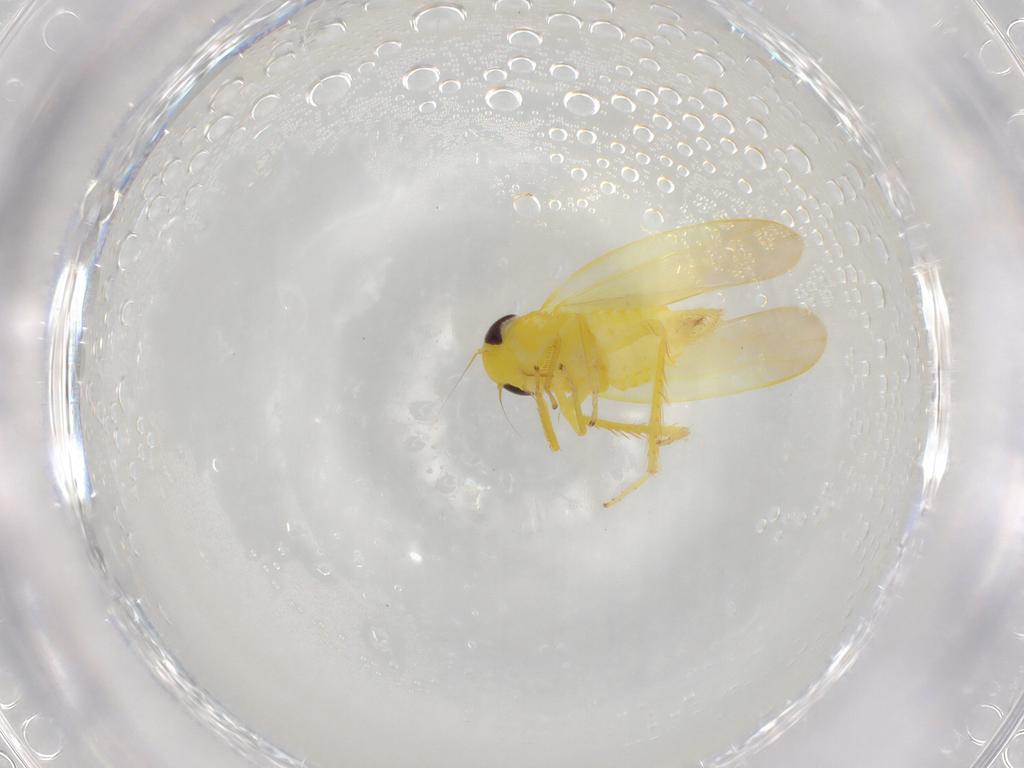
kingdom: Animalia
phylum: Arthropoda
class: Insecta
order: Hemiptera
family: Cicadellidae
